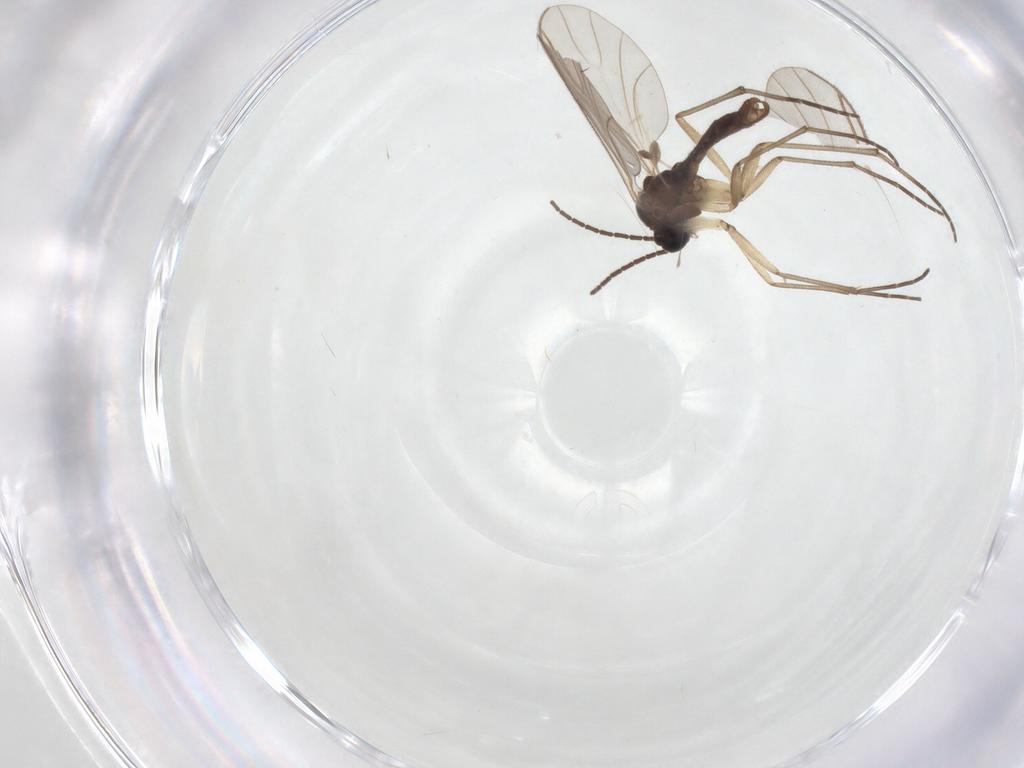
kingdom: Animalia
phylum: Arthropoda
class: Insecta
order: Diptera
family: Sciaridae
